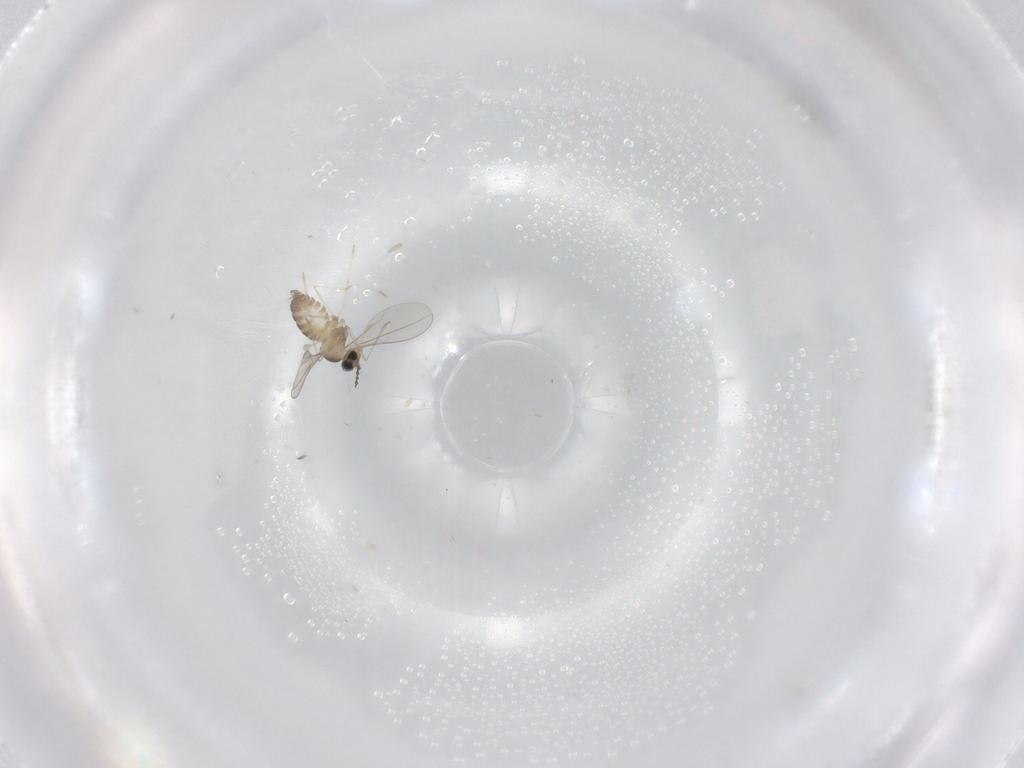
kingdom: Animalia
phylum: Arthropoda
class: Insecta
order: Diptera
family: Cecidomyiidae
